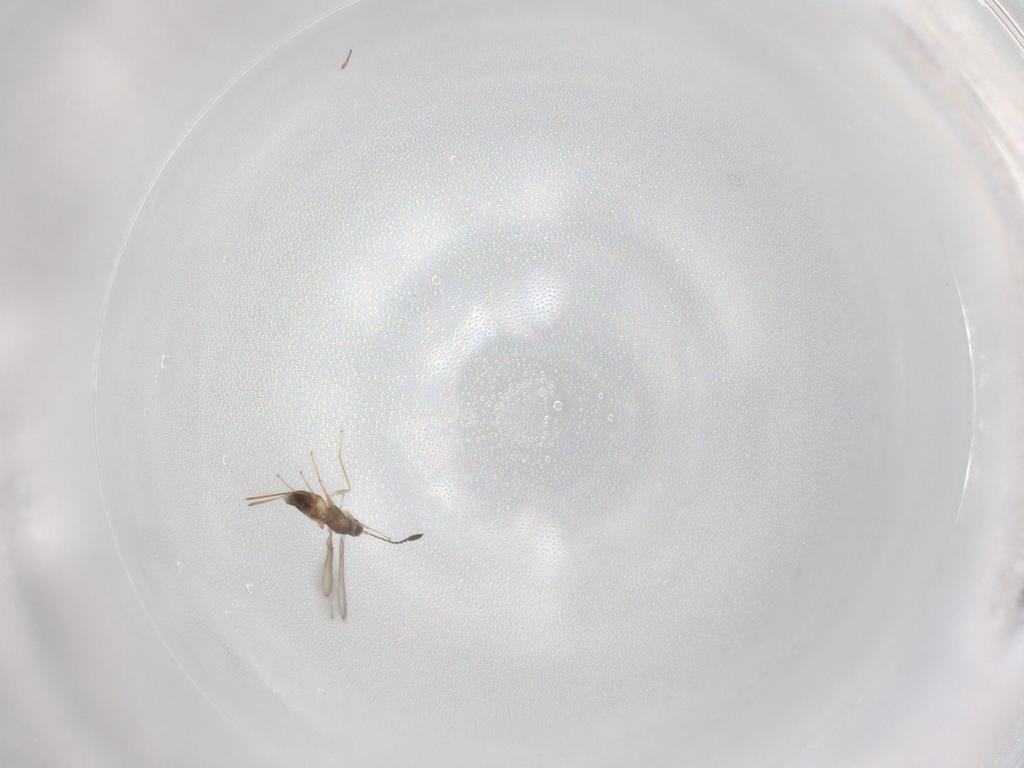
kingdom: Animalia
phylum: Arthropoda
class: Insecta
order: Hymenoptera
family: Mymaridae
